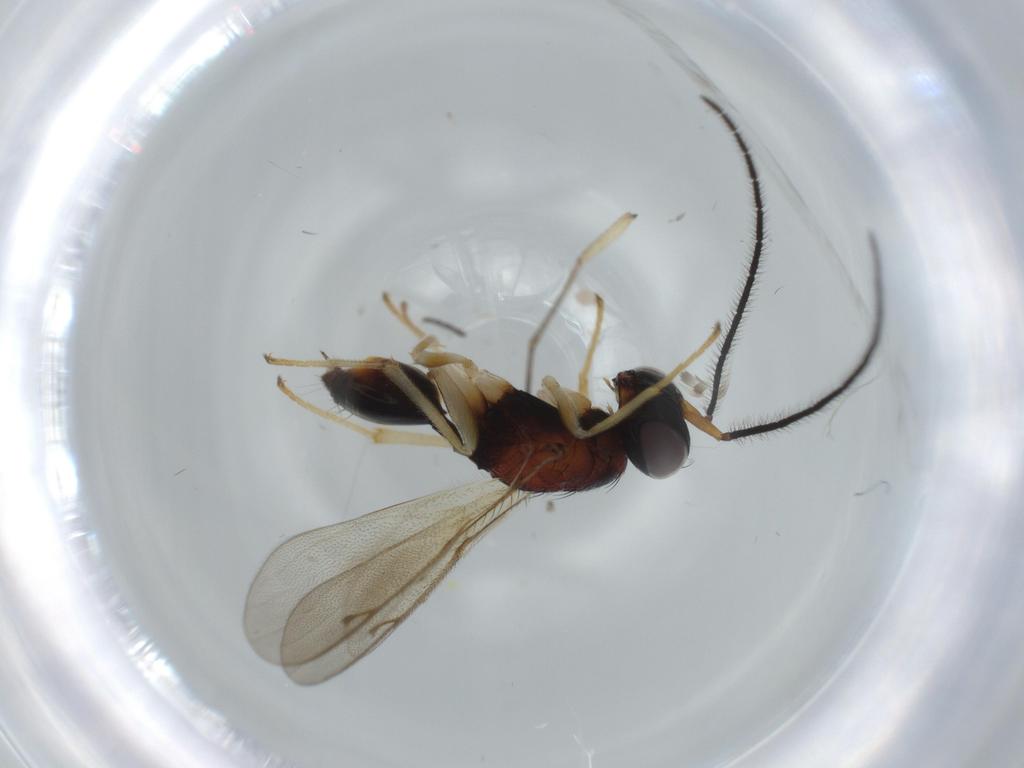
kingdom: Animalia
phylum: Arthropoda
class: Insecta
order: Hymenoptera
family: Diparidae
